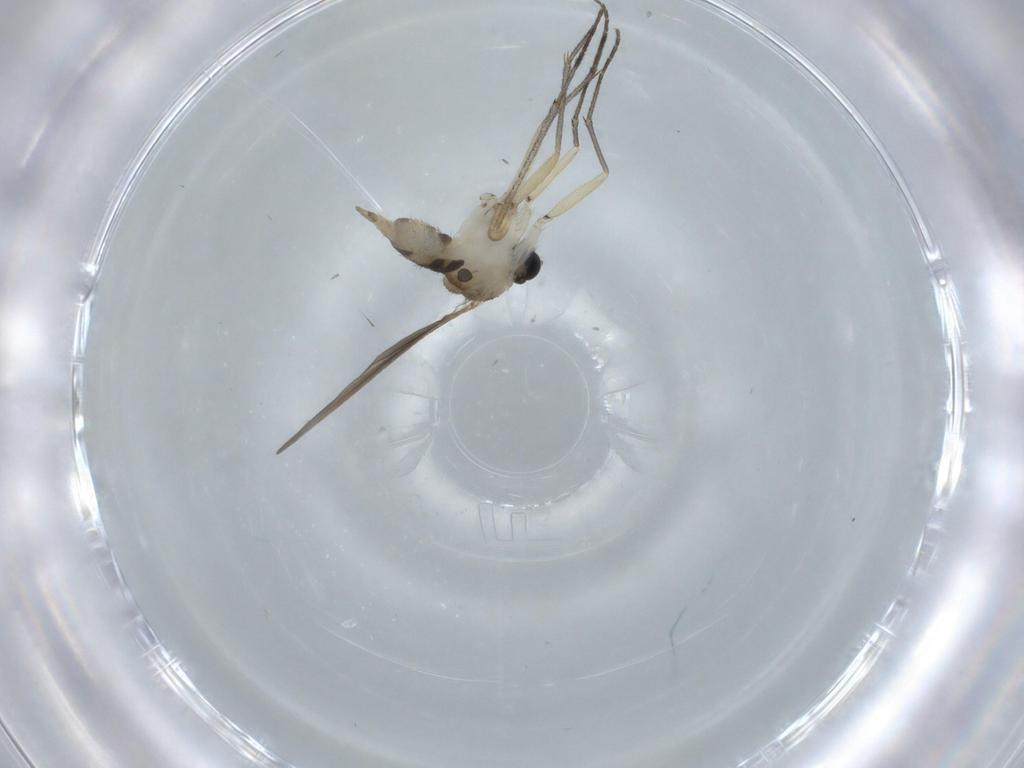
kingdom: Animalia
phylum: Arthropoda
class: Insecta
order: Diptera
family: Sciaridae
